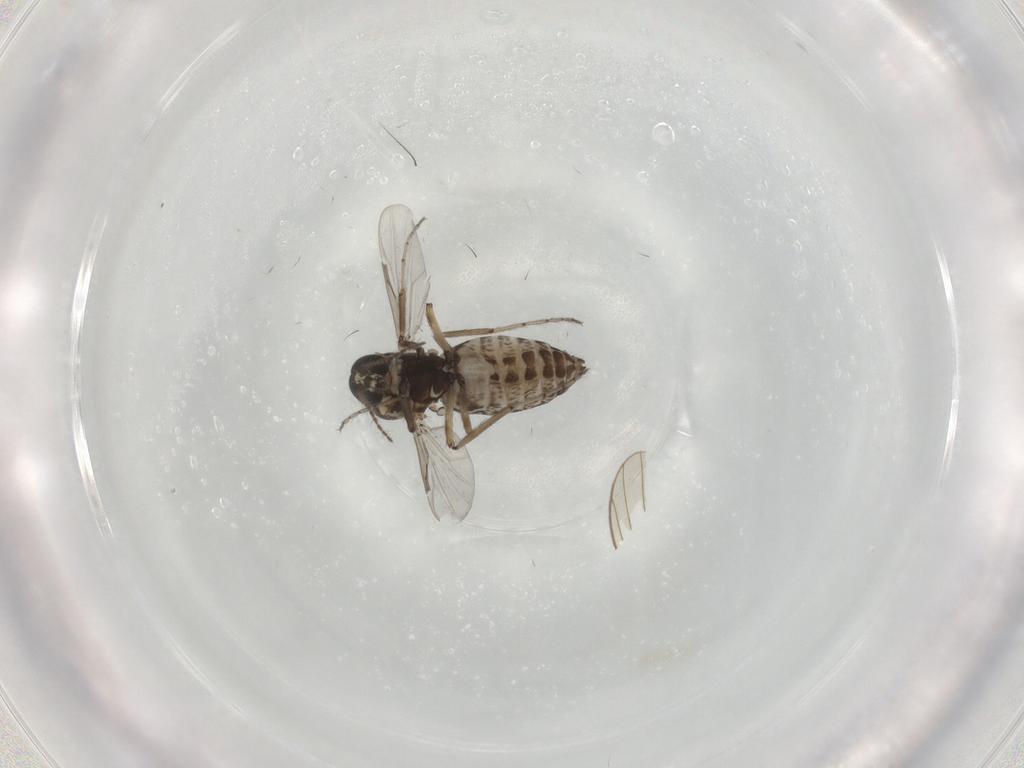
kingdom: Animalia
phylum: Arthropoda
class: Insecta
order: Diptera
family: Ceratopogonidae
